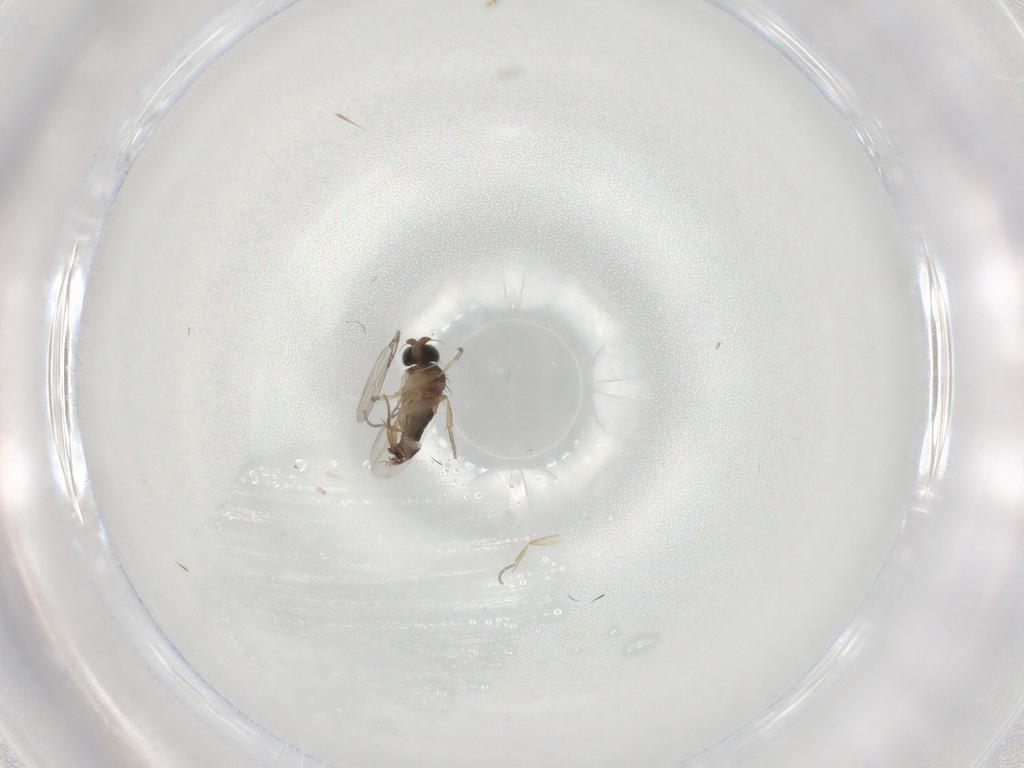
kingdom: Animalia
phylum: Arthropoda
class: Insecta
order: Diptera
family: Phoridae
